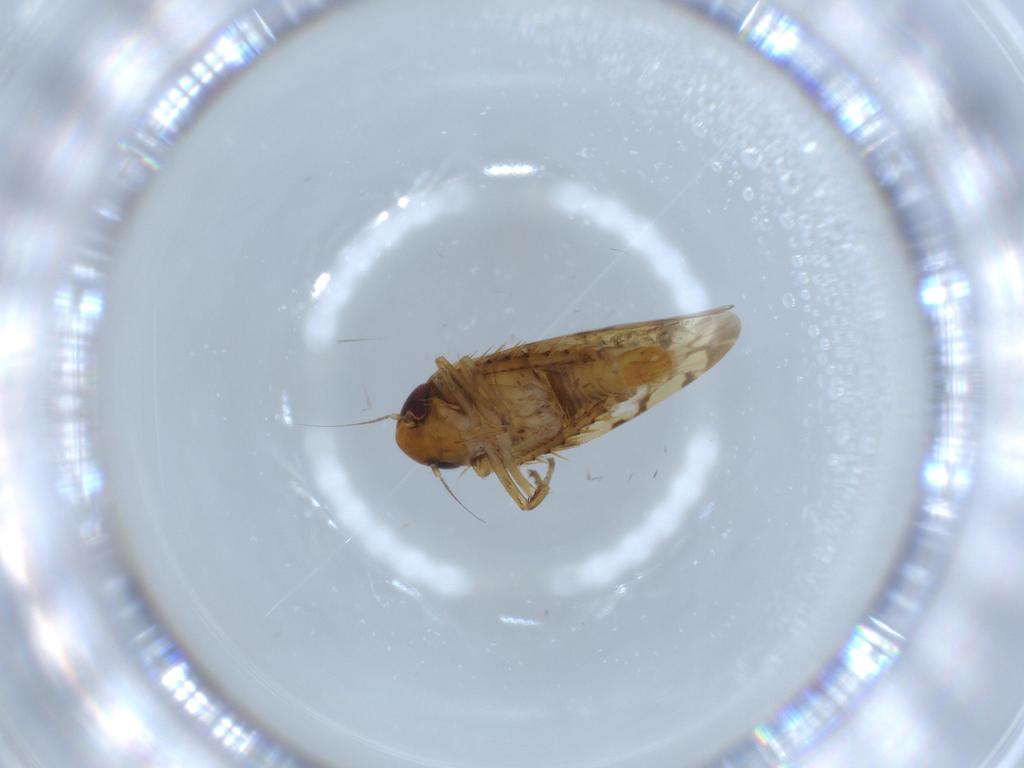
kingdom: Animalia
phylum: Arthropoda
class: Insecta
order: Hemiptera
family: Cicadellidae
